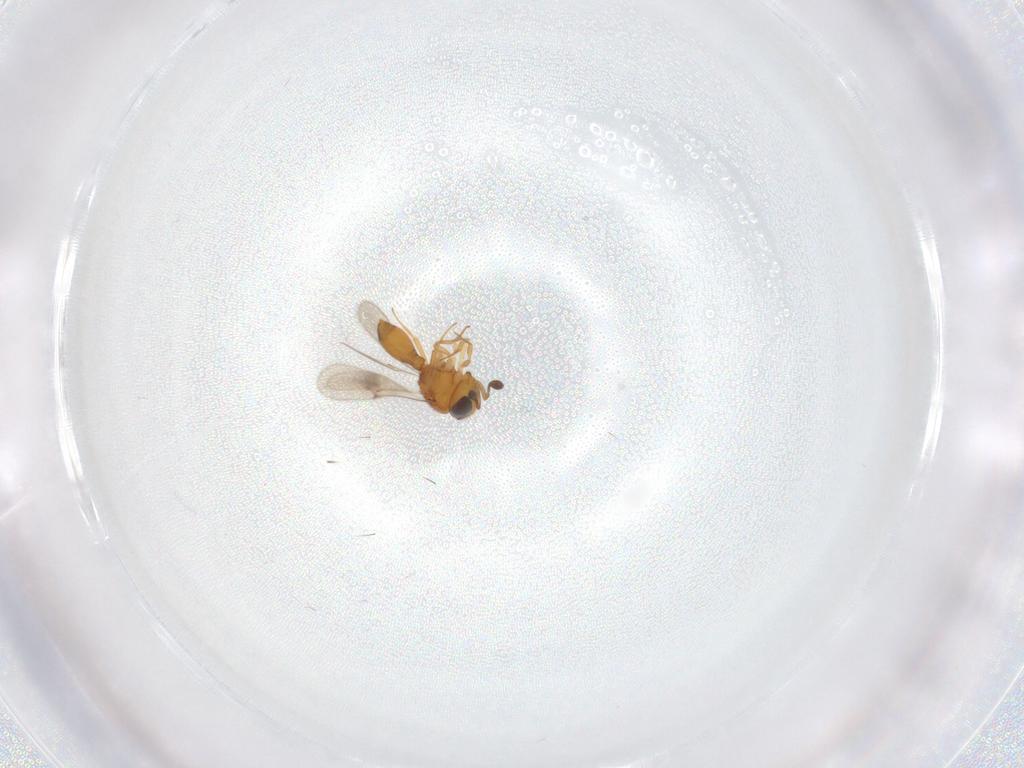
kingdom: Animalia
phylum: Arthropoda
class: Insecta
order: Hymenoptera
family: Scelionidae
